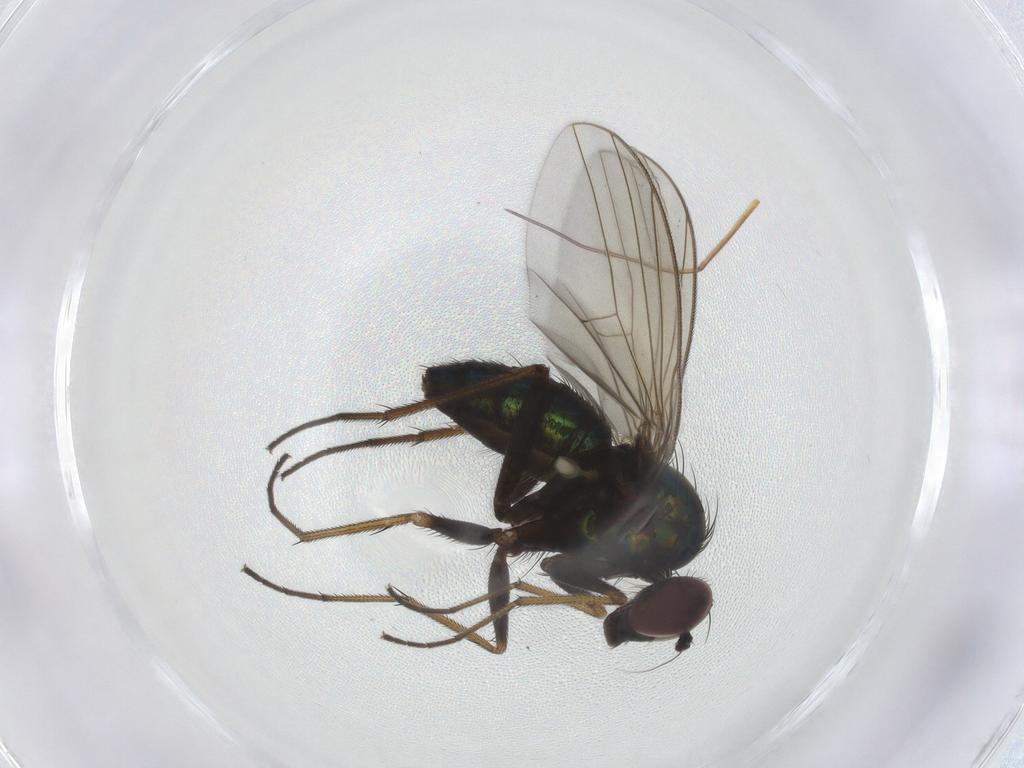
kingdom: Animalia
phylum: Arthropoda
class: Insecta
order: Diptera
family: Dolichopodidae
